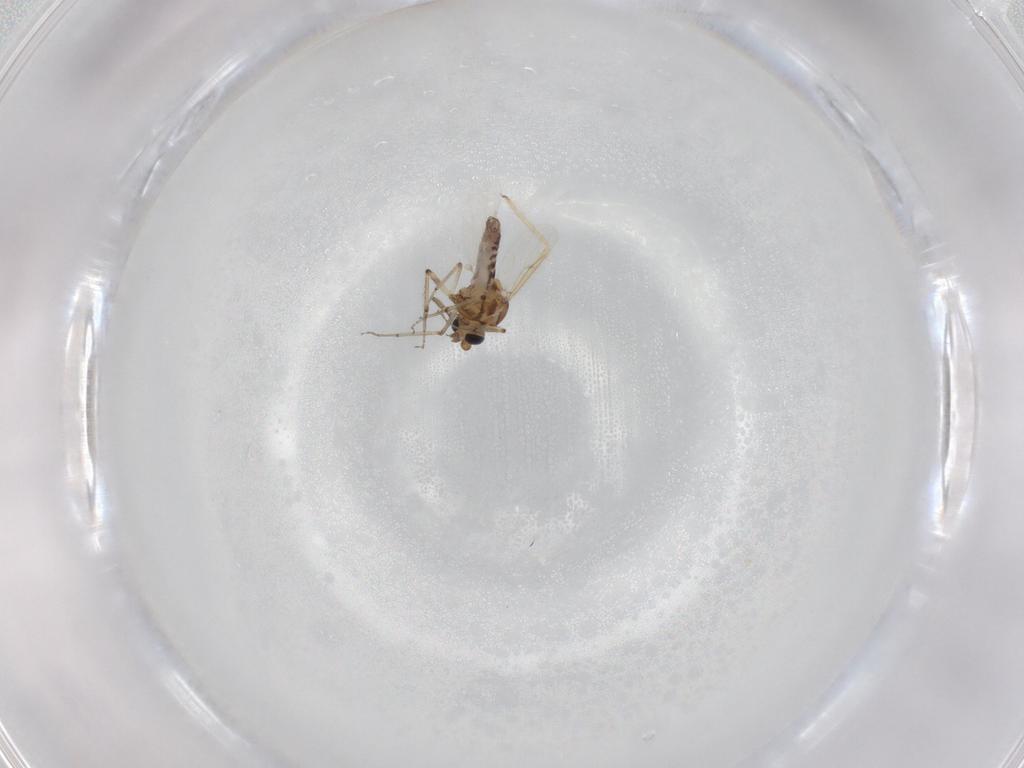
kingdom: Animalia
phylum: Arthropoda
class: Insecta
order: Diptera
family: Ceratopogonidae
